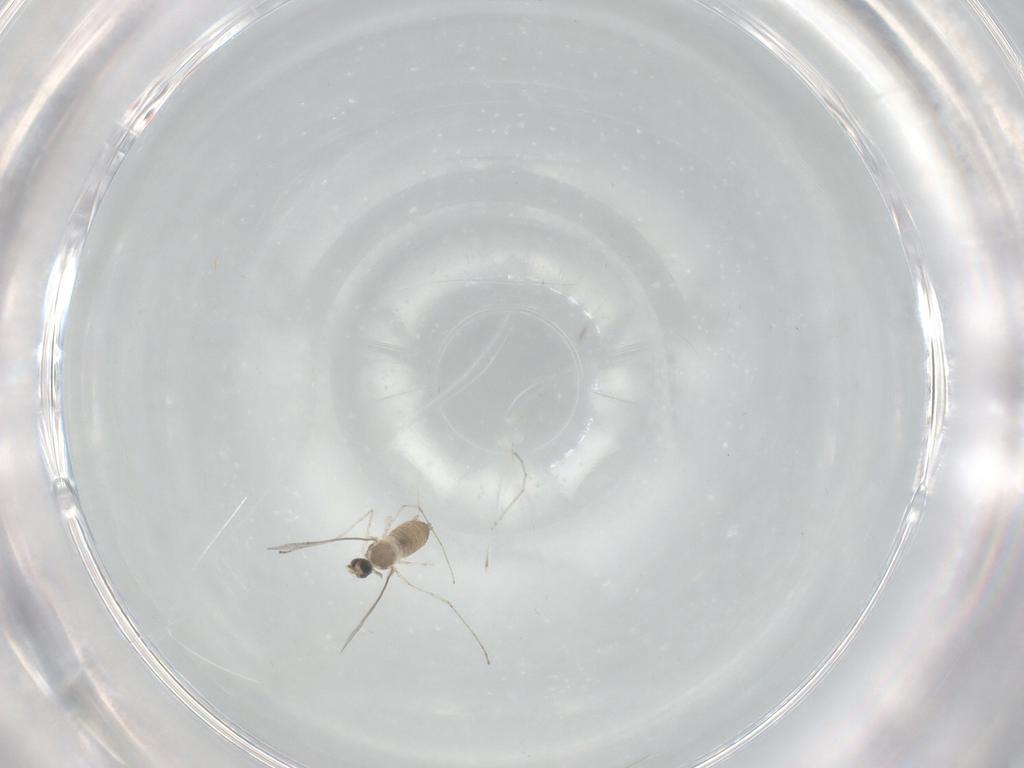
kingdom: Animalia
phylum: Arthropoda
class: Insecta
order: Diptera
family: Cecidomyiidae
